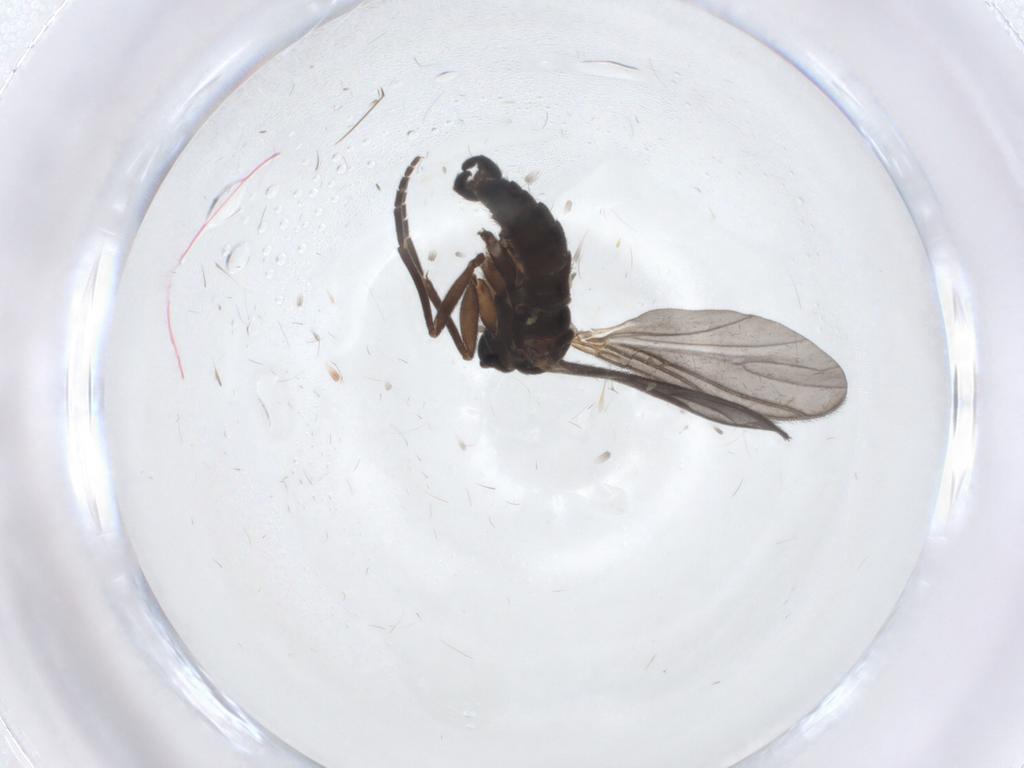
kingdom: Animalia
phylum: Arthropoda
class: Insecta
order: Diptera
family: Sciaridae
